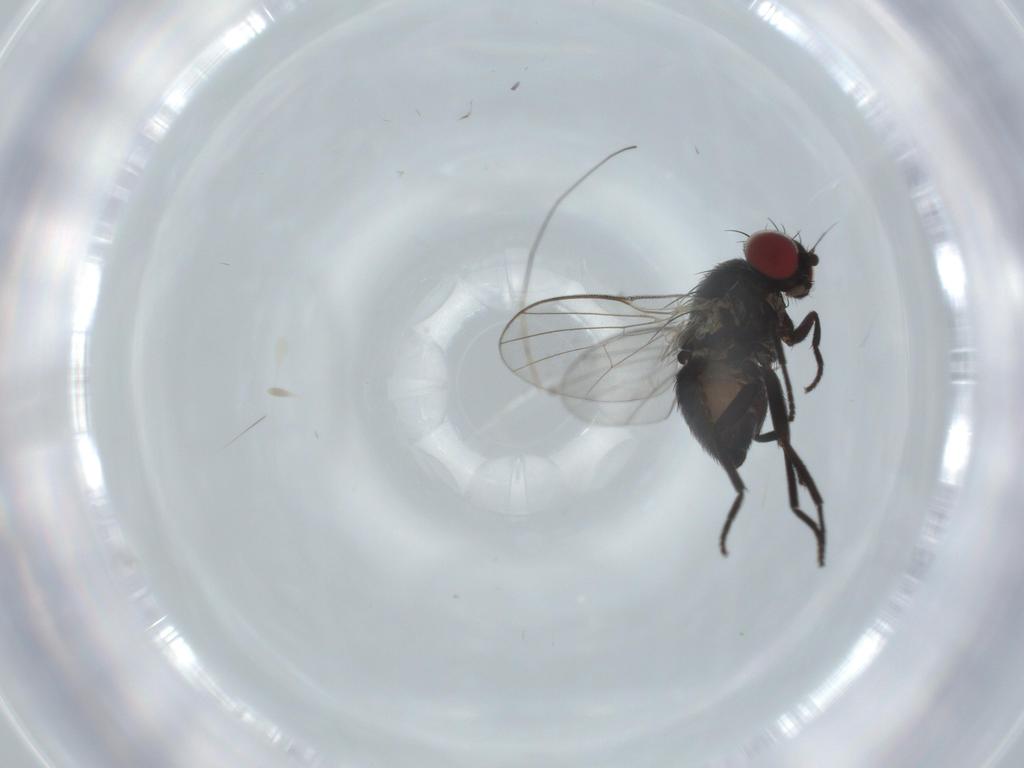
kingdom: Animalia
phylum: Arthropoda
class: Insecta
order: Diptera
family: Agromyzidae
